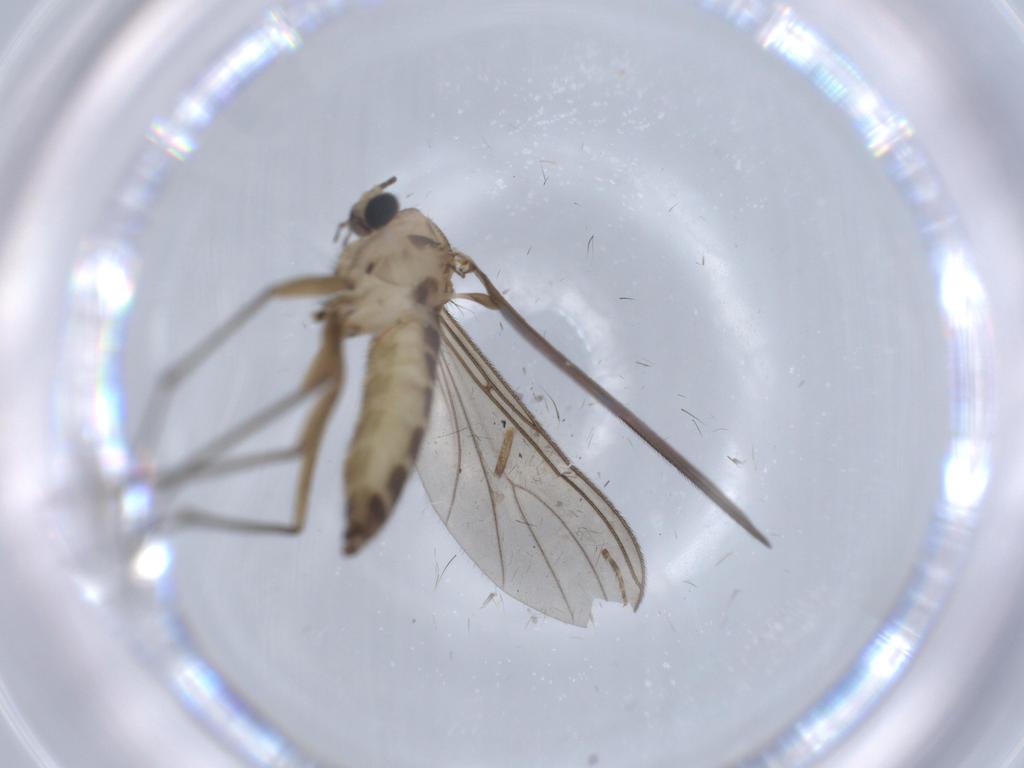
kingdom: Animalia
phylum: Arthropoda
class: Insecta
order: Diptera
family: Sciaridae
